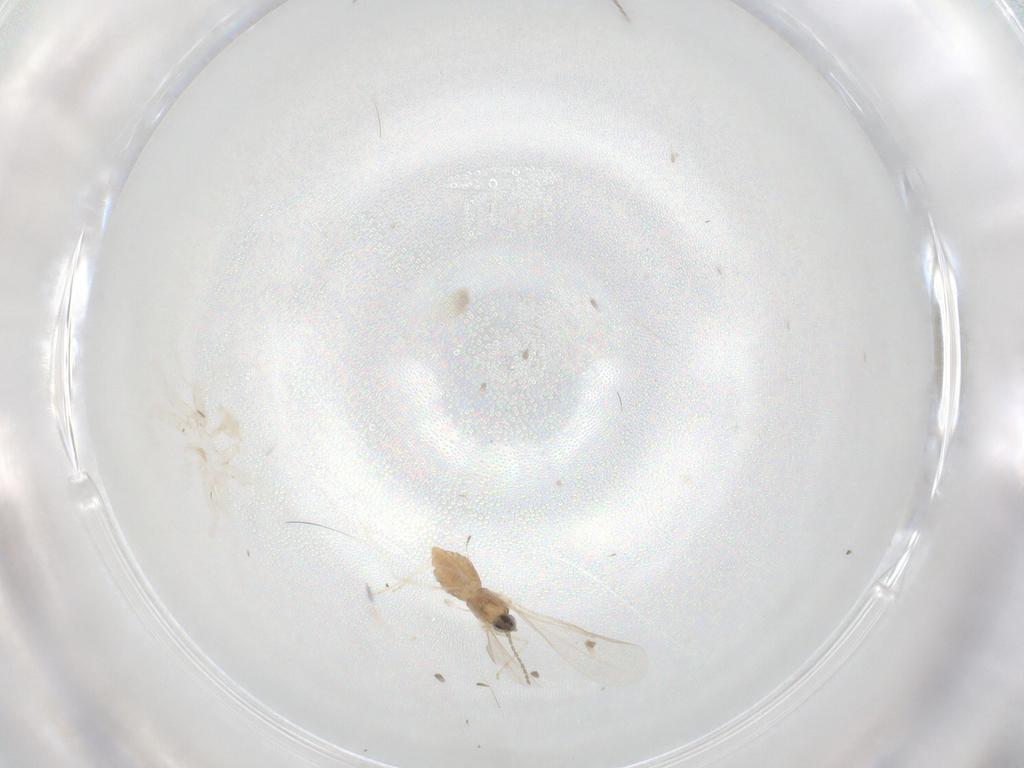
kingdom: Animalia
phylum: Arthropoda
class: Insecta
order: Diptera
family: Cecidomyiidae
